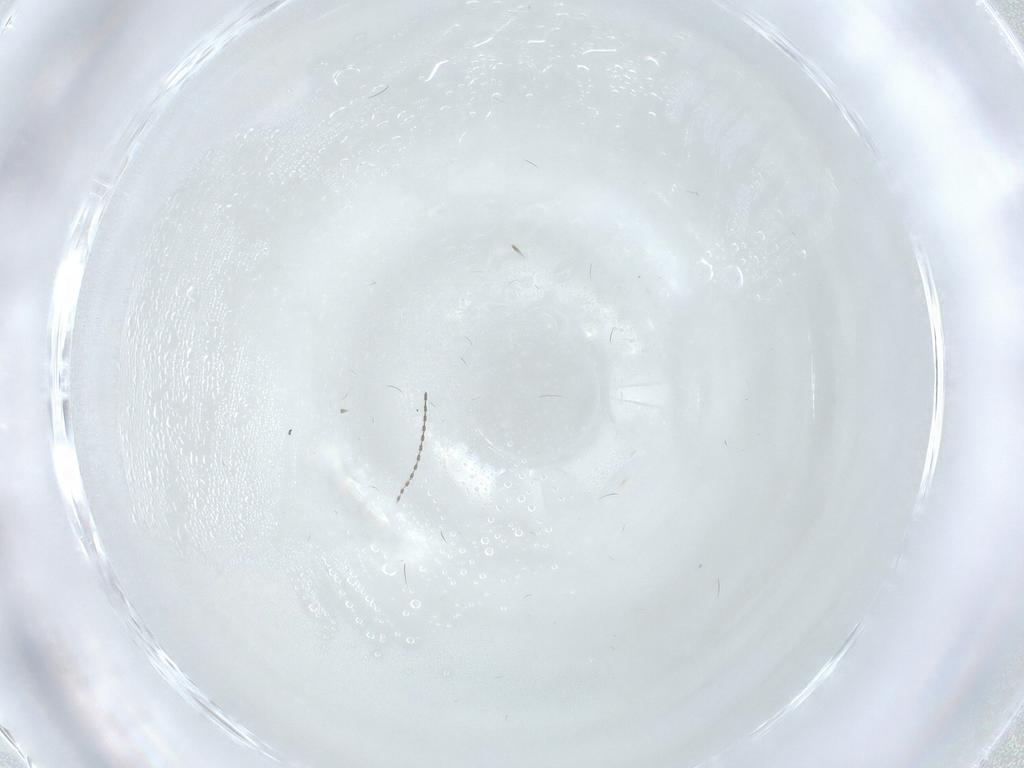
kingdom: Animalia
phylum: Arthropoda
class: Insecta
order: Diptera
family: Cecidomyiidae
